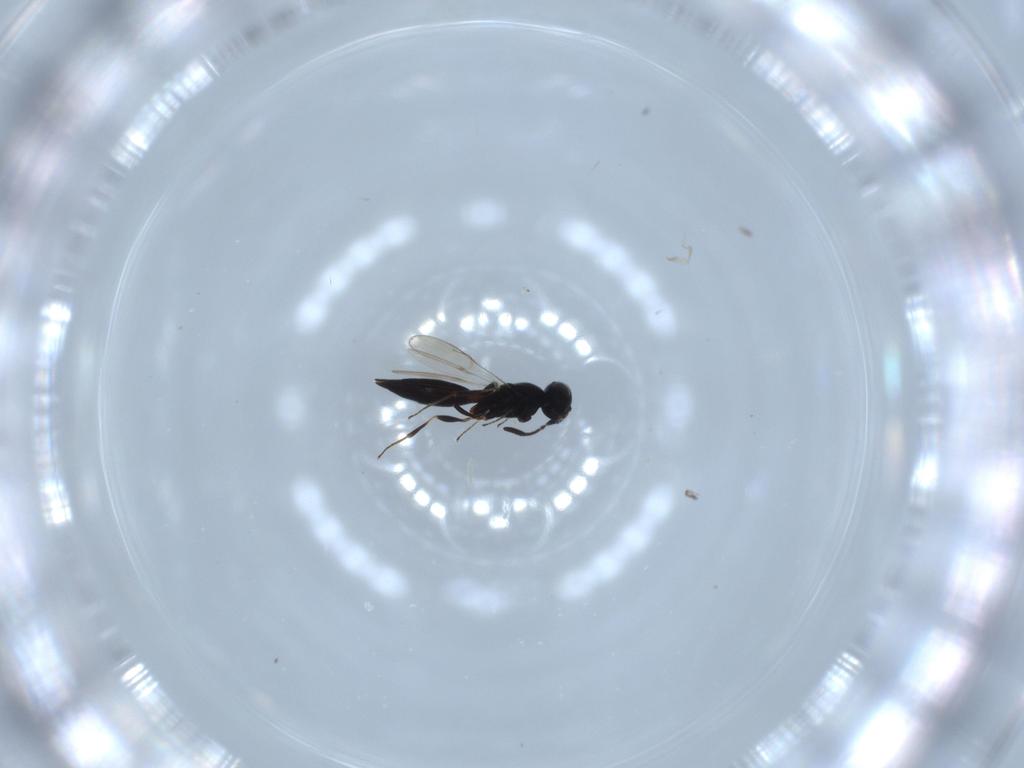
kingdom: Animalia
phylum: Arthropoda
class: Insecta
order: Hymenoptera
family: Scelionidae
